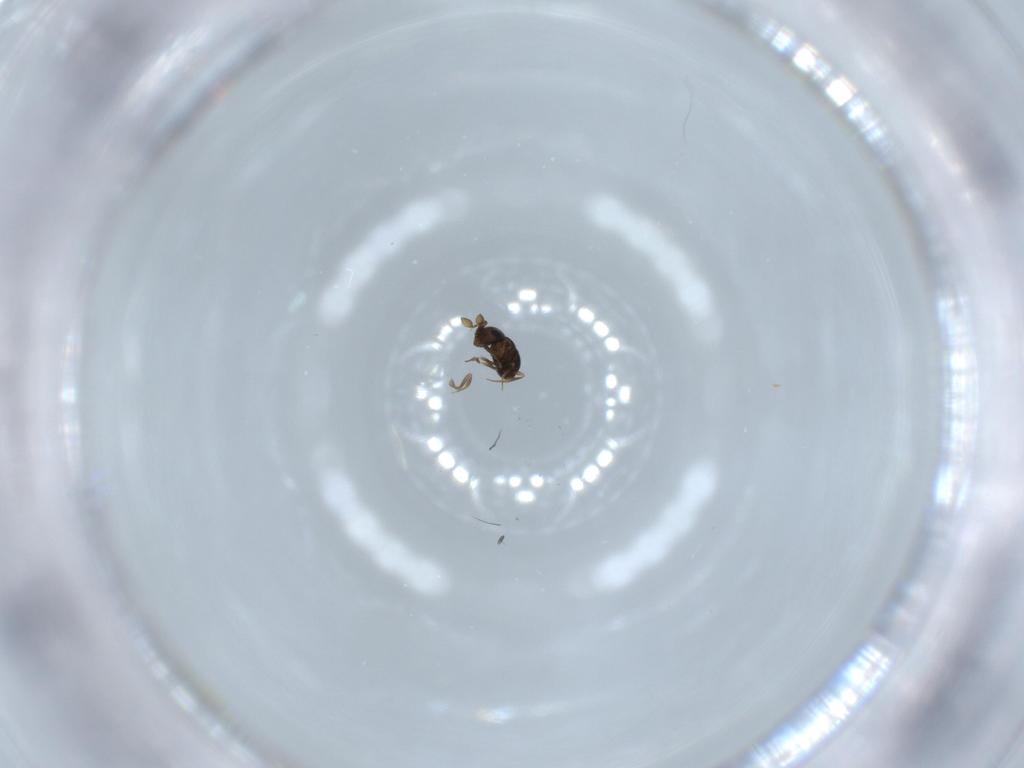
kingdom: Animalia
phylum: Arthropoda
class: Insecta
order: Hymenoptera
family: Scelionidae
